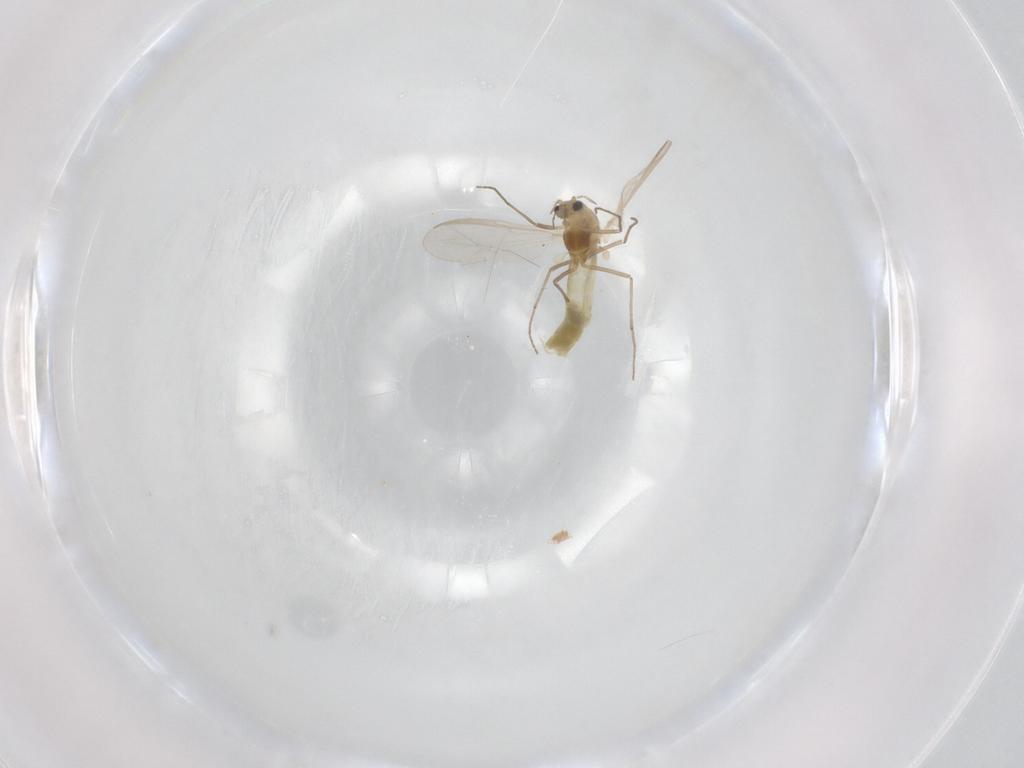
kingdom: Animalia
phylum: Arthropoda
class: Insecta
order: Diptera
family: Chironomidae
